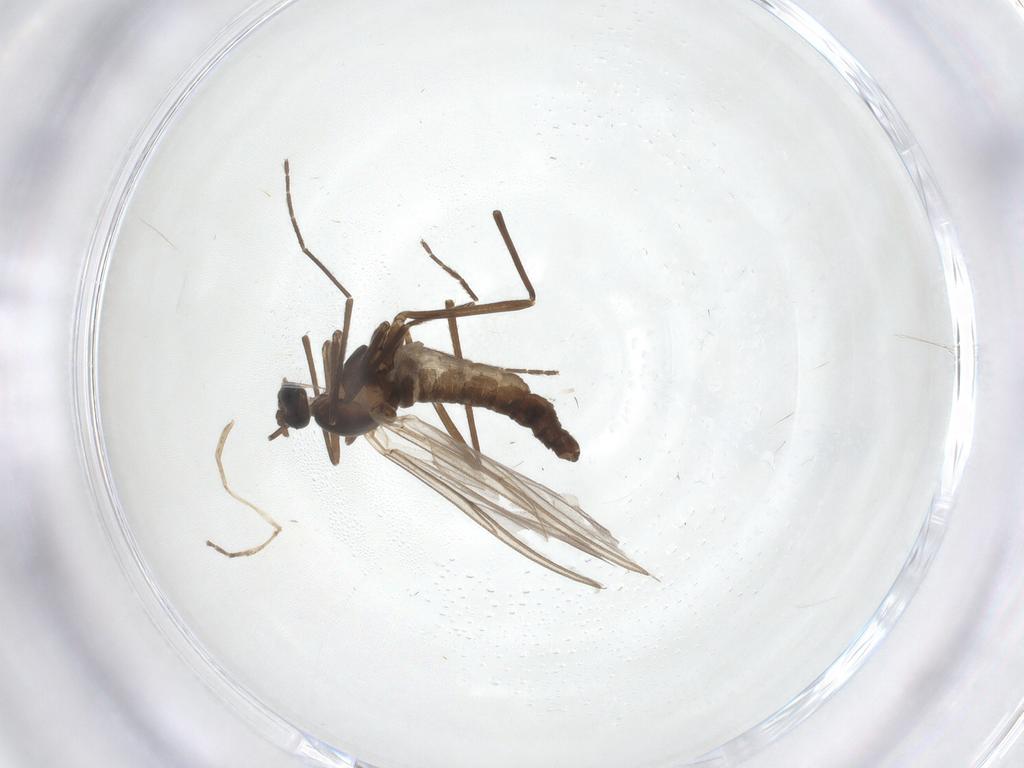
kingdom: Animalia
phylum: Arthropoda
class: Insecta
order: Diptera
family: Cecidomyiidae
